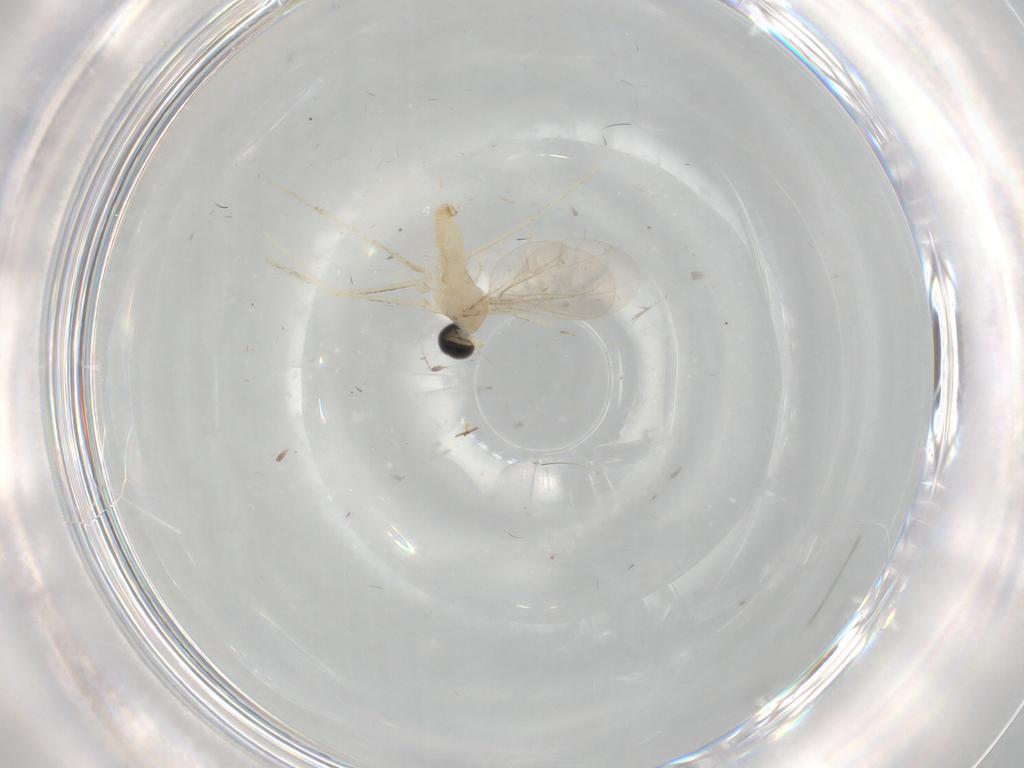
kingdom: Animalia
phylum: Arthropoda
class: Insecta
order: Diptera
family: Cecidomyiidae
